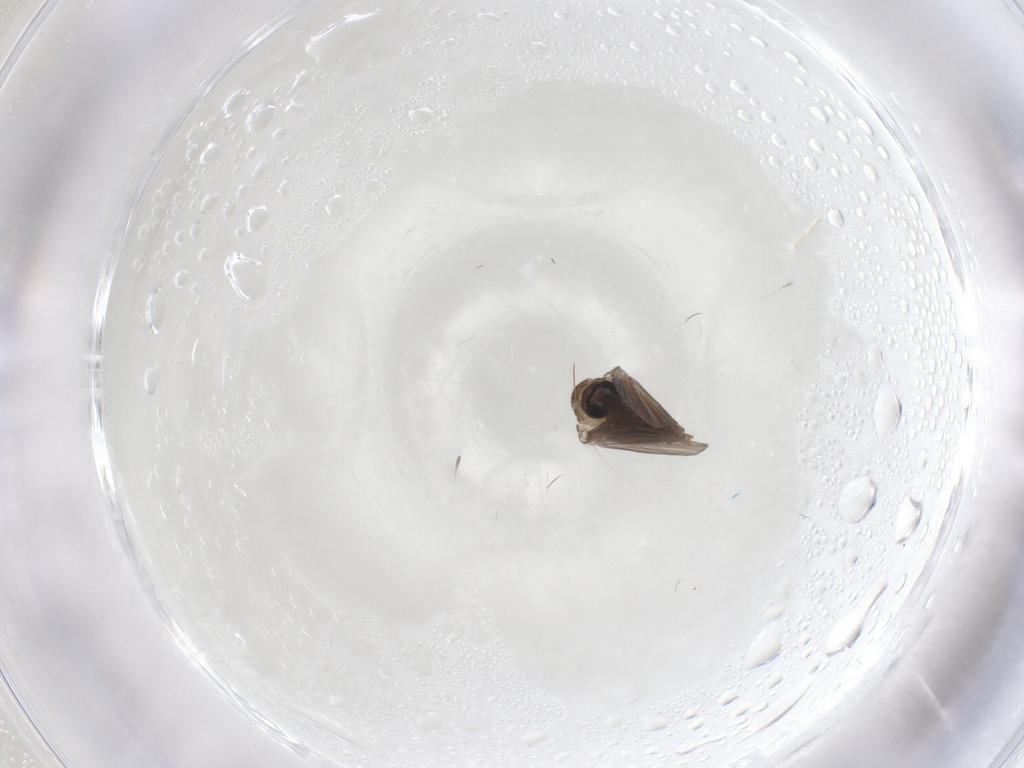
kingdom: Animalia
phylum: Arthropoda
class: Insecta
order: Diptera
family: Psychodidae
